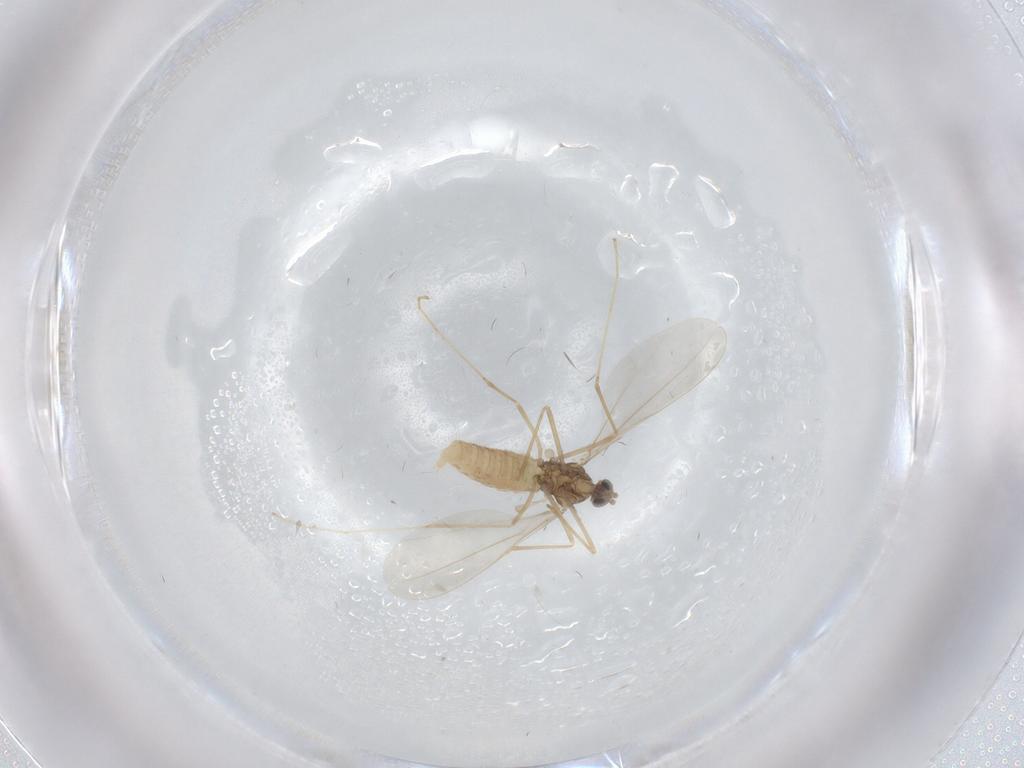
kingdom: Animalia
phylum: Arthropoda
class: Insecta
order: Diptera
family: Cecidomyiidae
